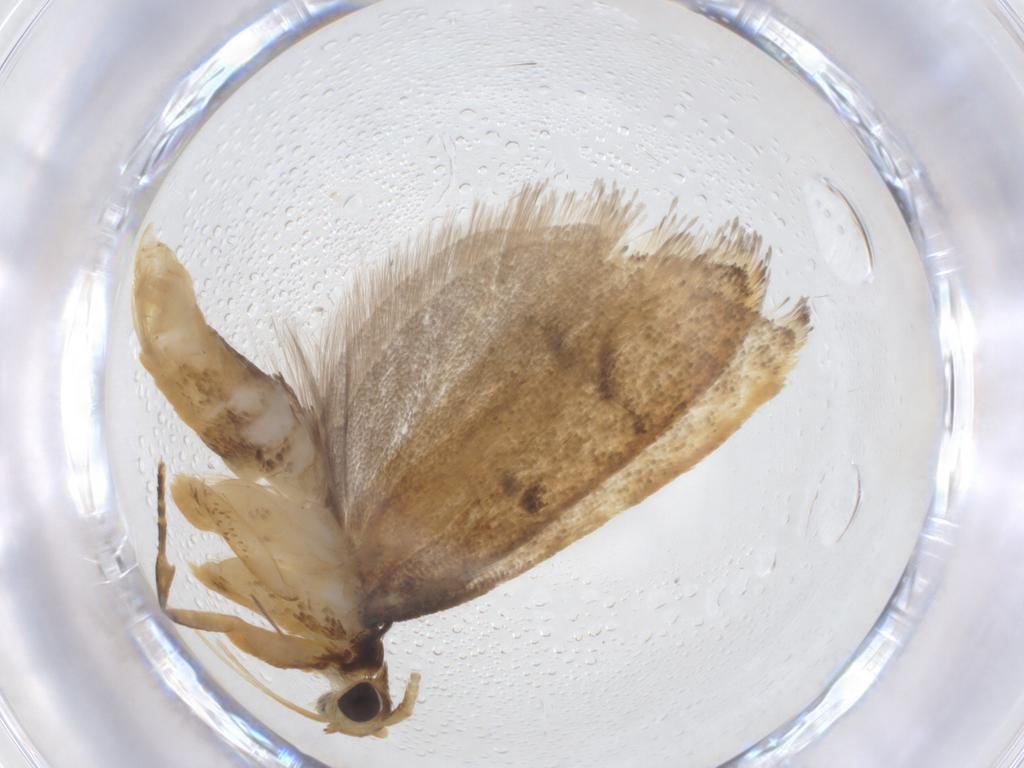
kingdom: Animalia
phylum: Arthropoda
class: Insecta
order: Lepidoptera
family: Lecithoceridae
